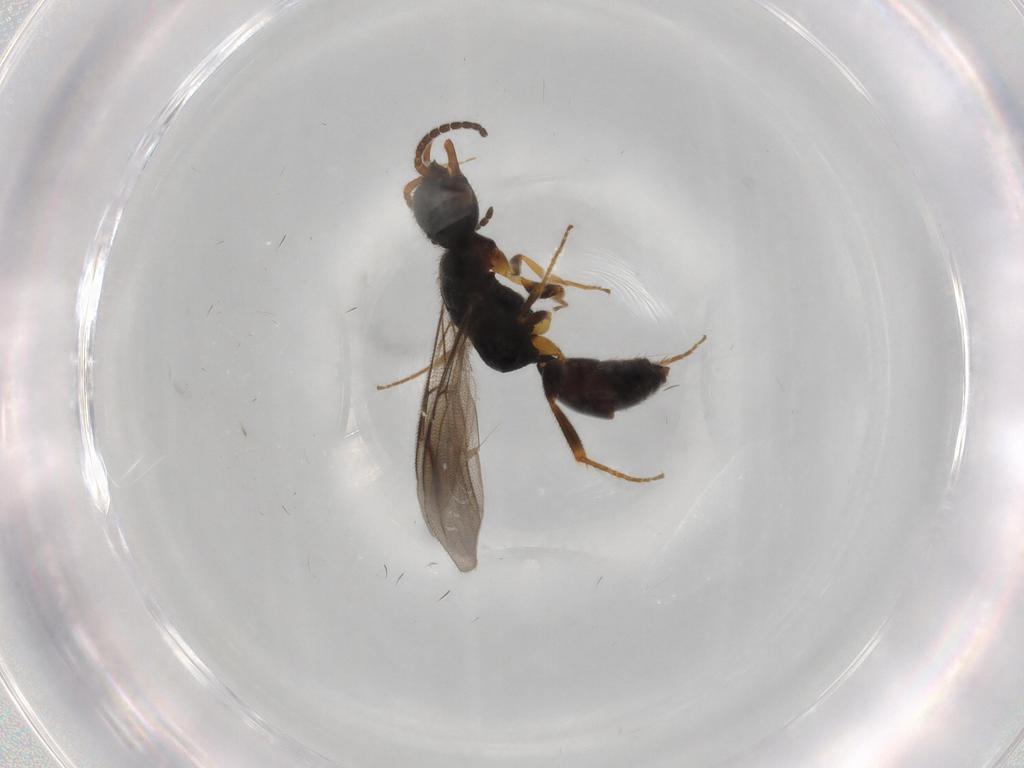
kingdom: Animalia
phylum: Arthropoda
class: Insecta
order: Hymenoptera
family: Bethylidae
